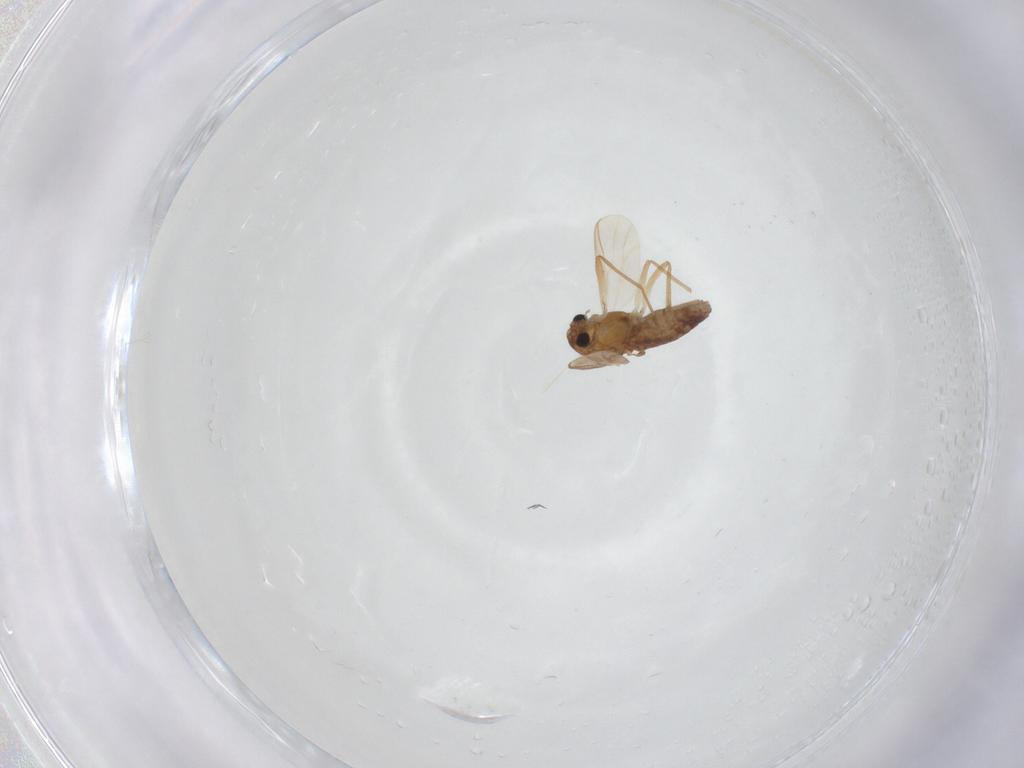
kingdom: Animalia
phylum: Arthropoda
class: Insecta
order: Diptera
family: Chironomidae
